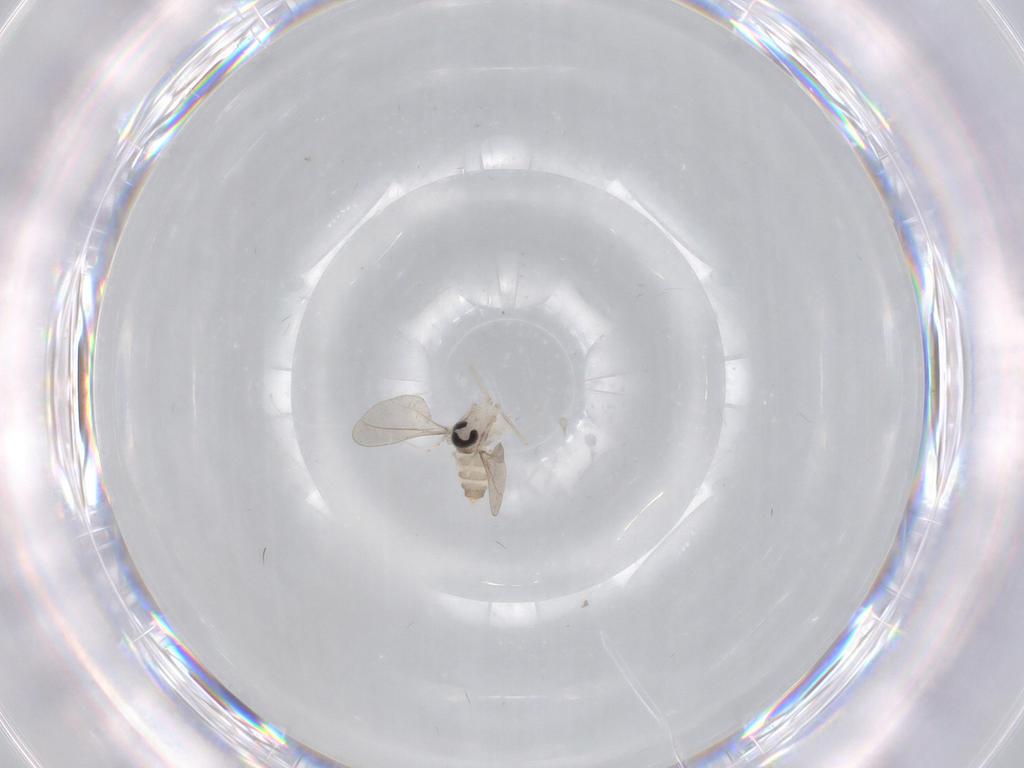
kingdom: Animalia
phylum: Arthropoda
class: Insecta
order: Diptera
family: Cecidomyiidae
